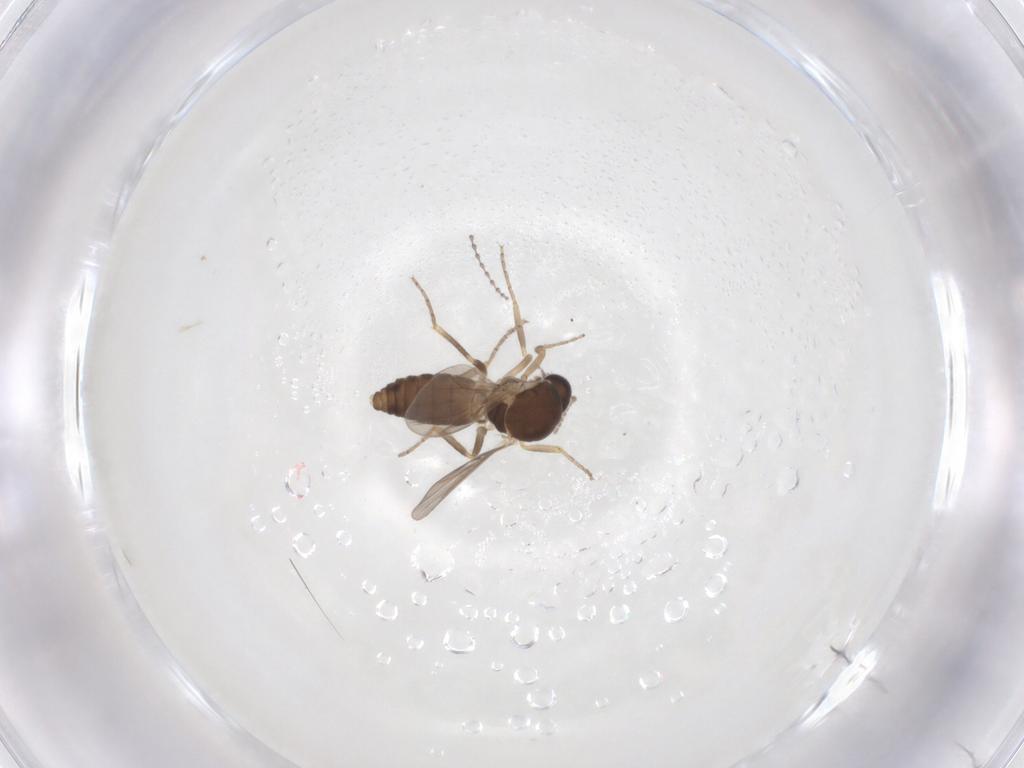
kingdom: Animalia
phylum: Arthropoda
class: Insecta
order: Diptera
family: Ceratopogonidae
